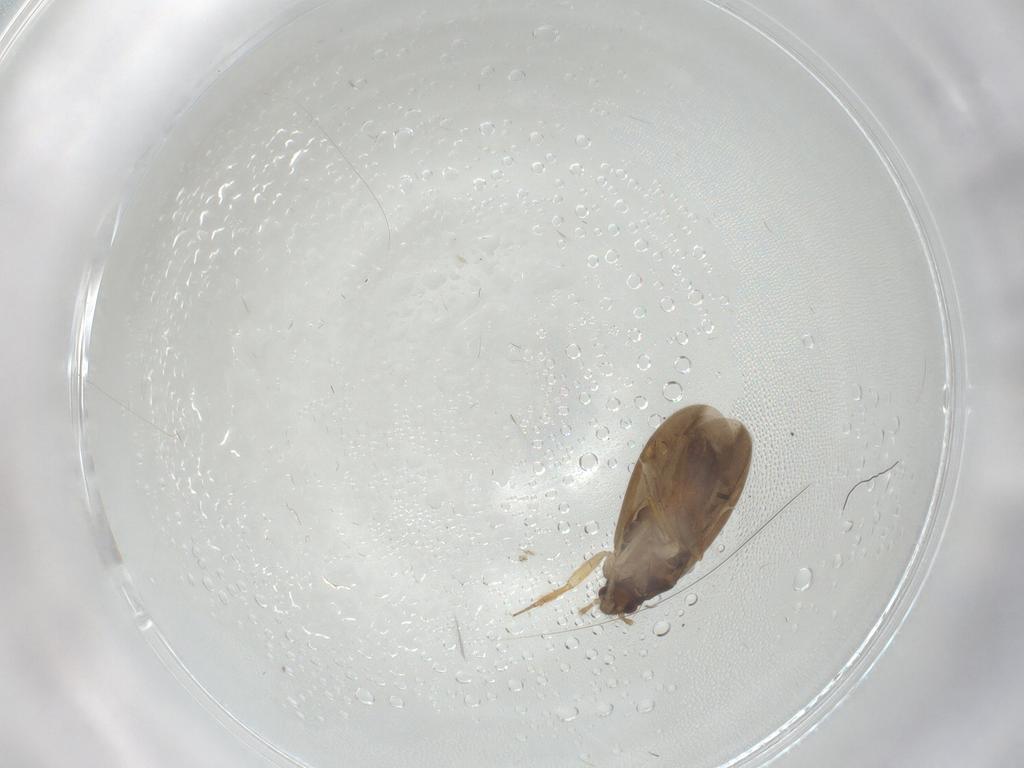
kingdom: Animalia
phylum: Arthropoda
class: Insecta
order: Hemiptera
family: Ceratocombidae
